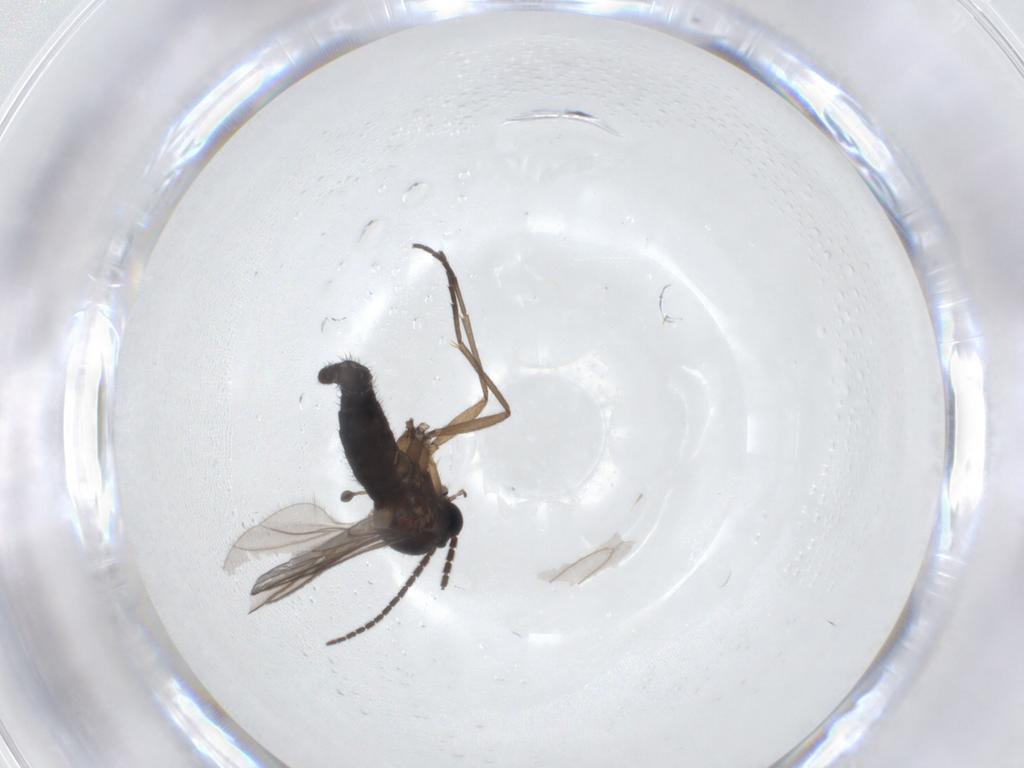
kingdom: Animalia
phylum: Arthropoda
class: Insecta
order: Diptera
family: Sciaridae
